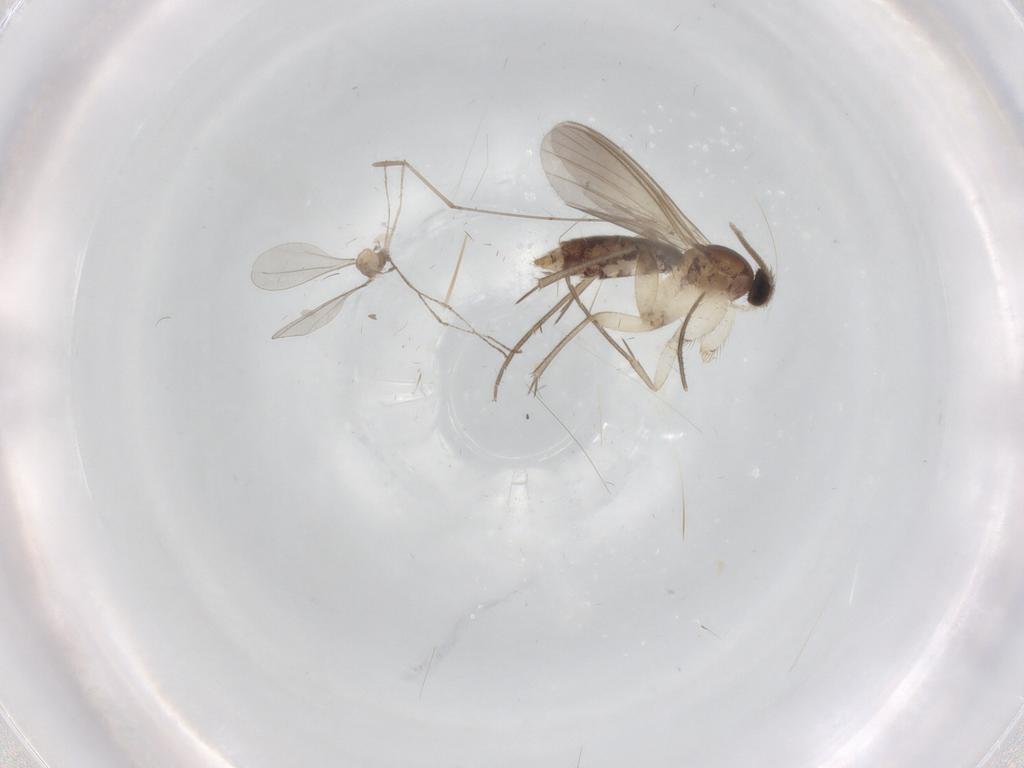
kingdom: Animalia
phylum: Arthropoda
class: Insecta
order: Diptera
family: Mycetophilidae
